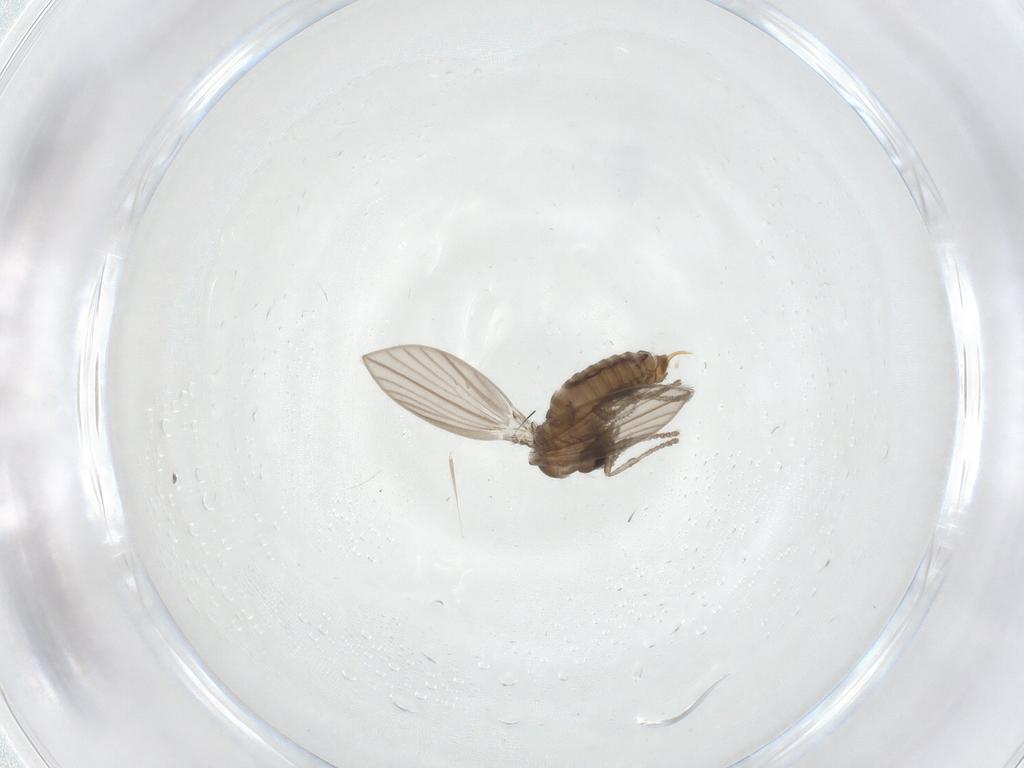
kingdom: Animalia
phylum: Arthropoda
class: Insecta
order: Diptera
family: Psychodidae
